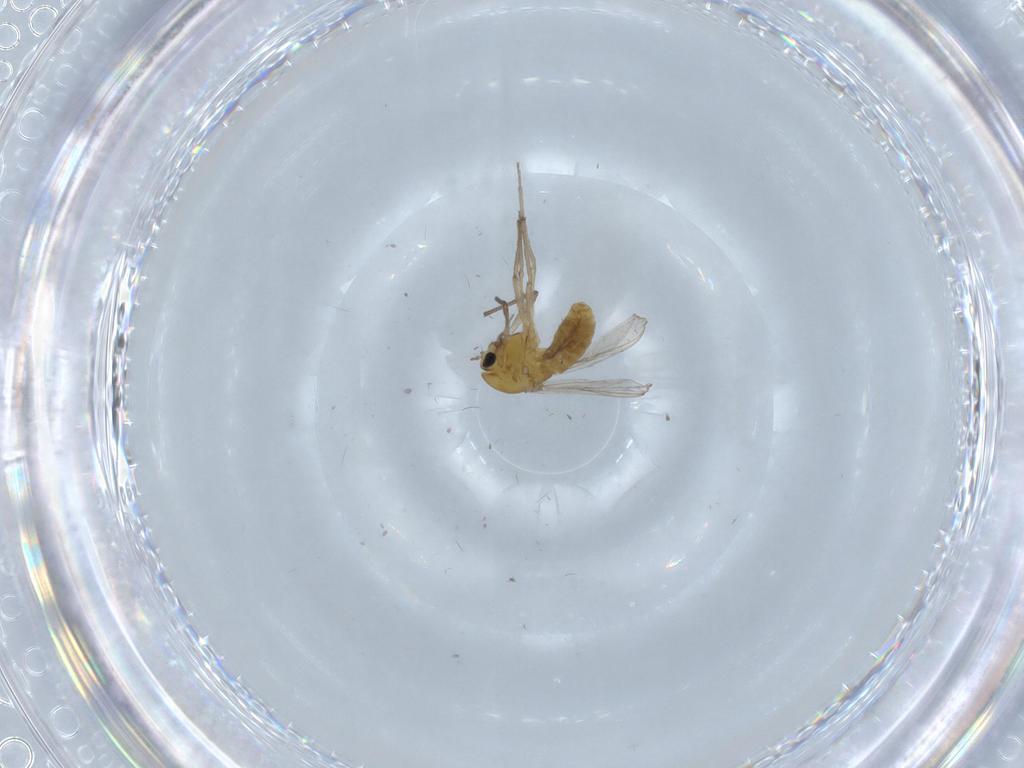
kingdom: Animalia
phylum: Arthropoda
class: Insecta
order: Diptera
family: Chironomidae
